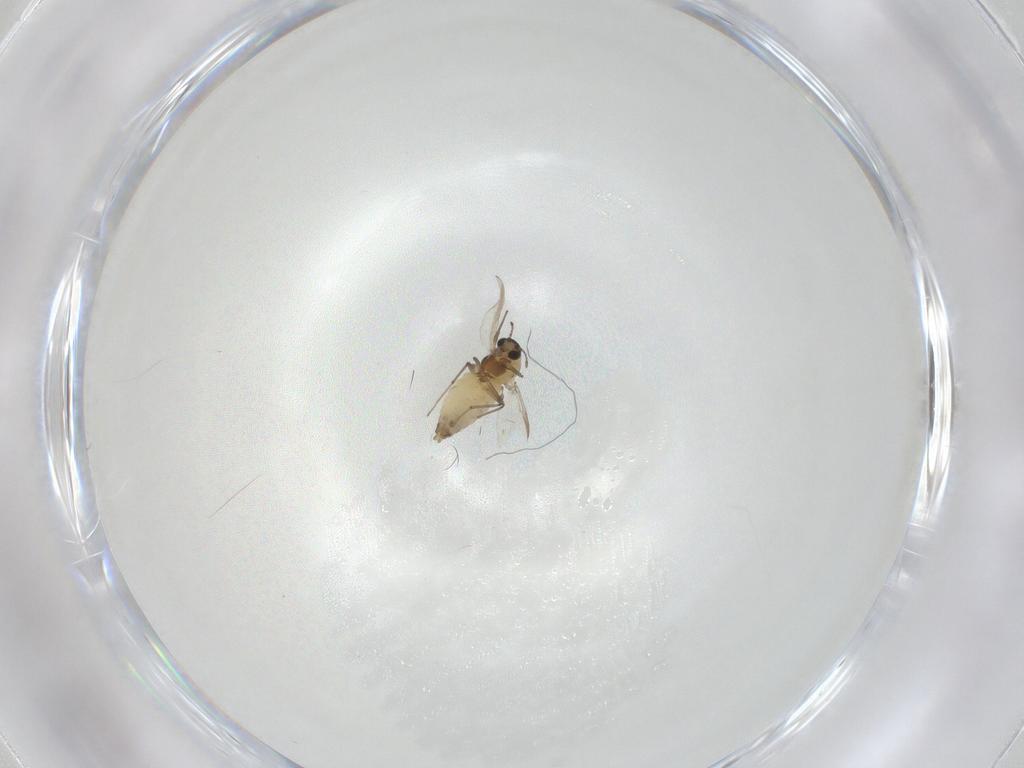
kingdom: Animalia
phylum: Arthropoda
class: Insecta
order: Diptera
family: Chironomidae
